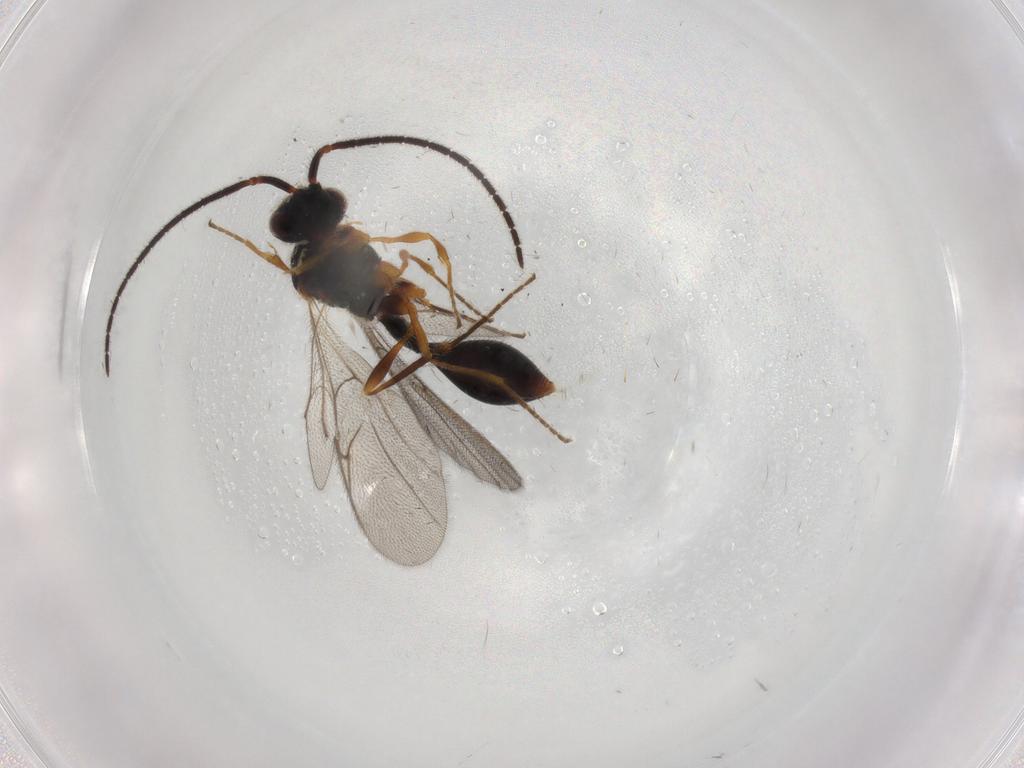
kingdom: Animalia
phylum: Arthropoda
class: Insecta
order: Hymenoptera
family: Diapriidae
